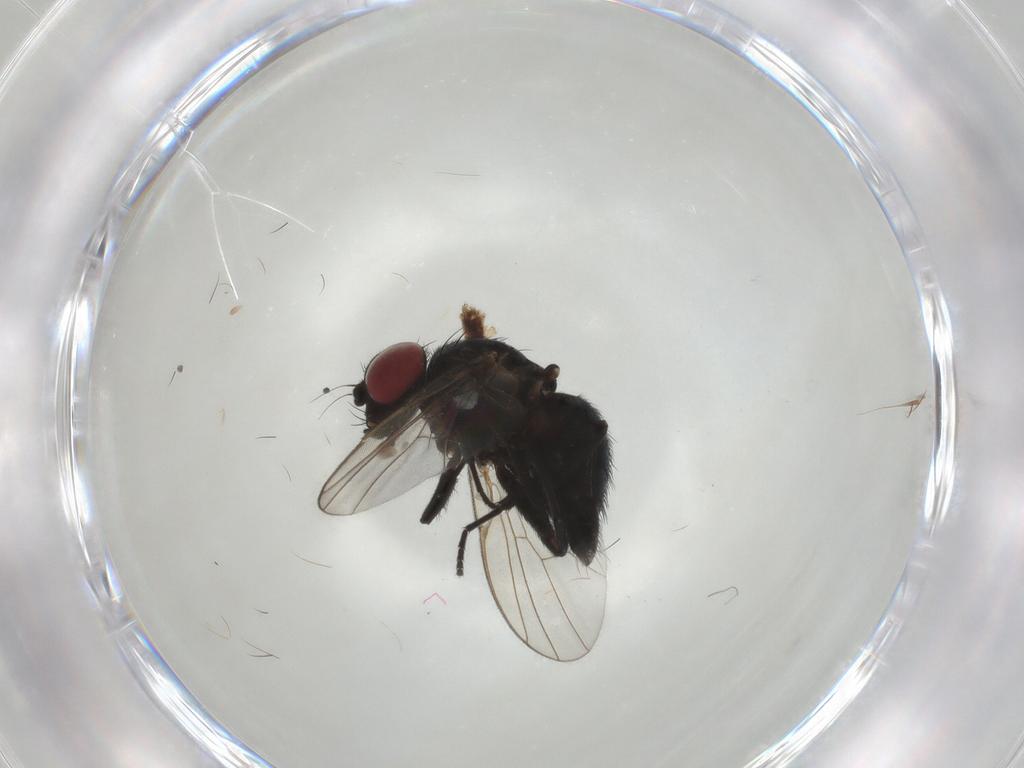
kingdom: Animalia
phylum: Arthropoda
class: Insecta
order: Diptera
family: Agromyzidae
